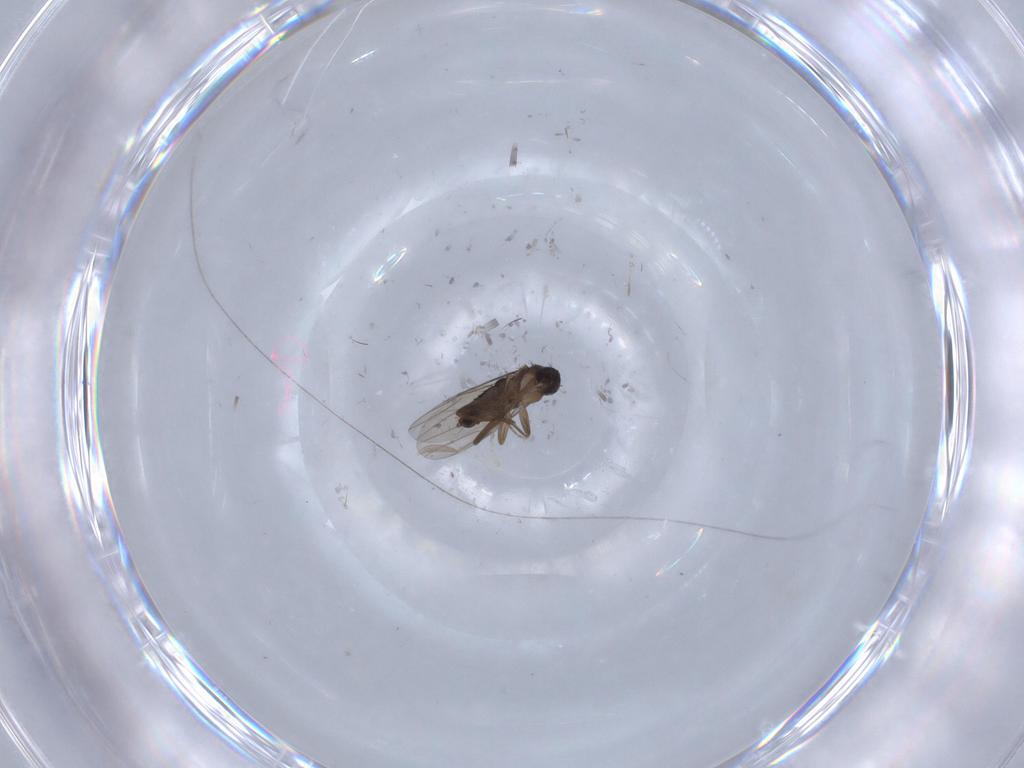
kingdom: Animalia
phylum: Arthropoda
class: Insecta
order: Diptera
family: Phoridae
